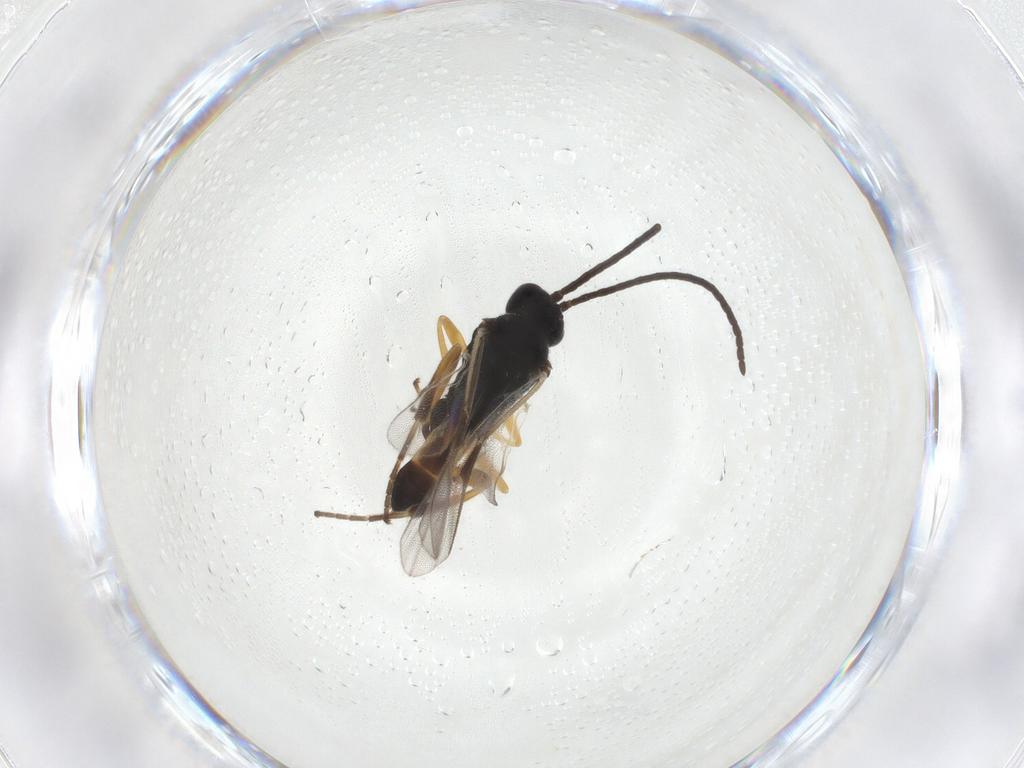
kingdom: Animalia
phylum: Arthropoda
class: Insecta
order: Hymenoptera
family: Braconidae
